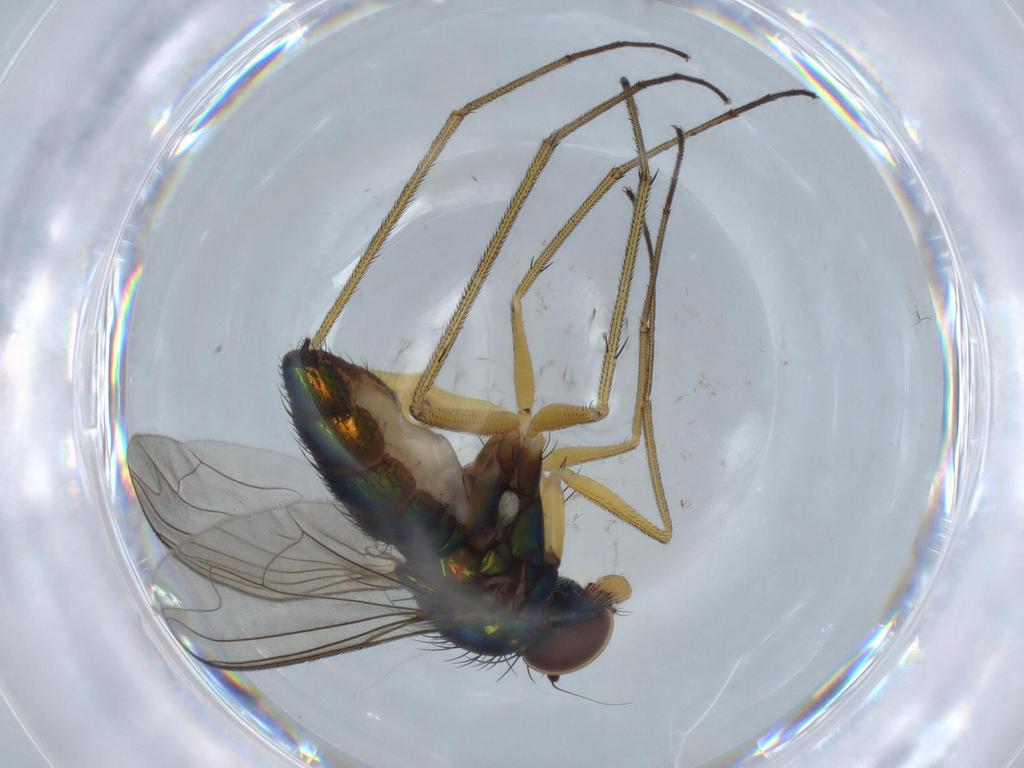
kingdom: Animalia
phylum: Arthropoda
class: Insecta
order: Diptera
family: Dolichopodidae
